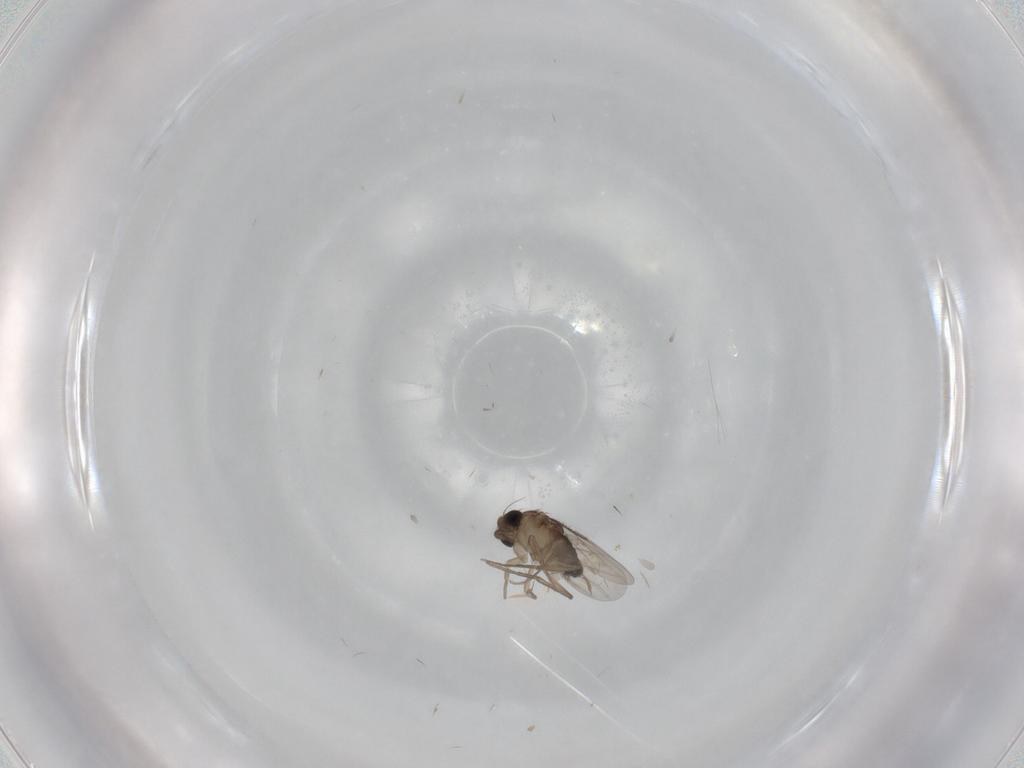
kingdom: Animalia
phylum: Arthropoda
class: Insecta
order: Diptera
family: Phoridae
